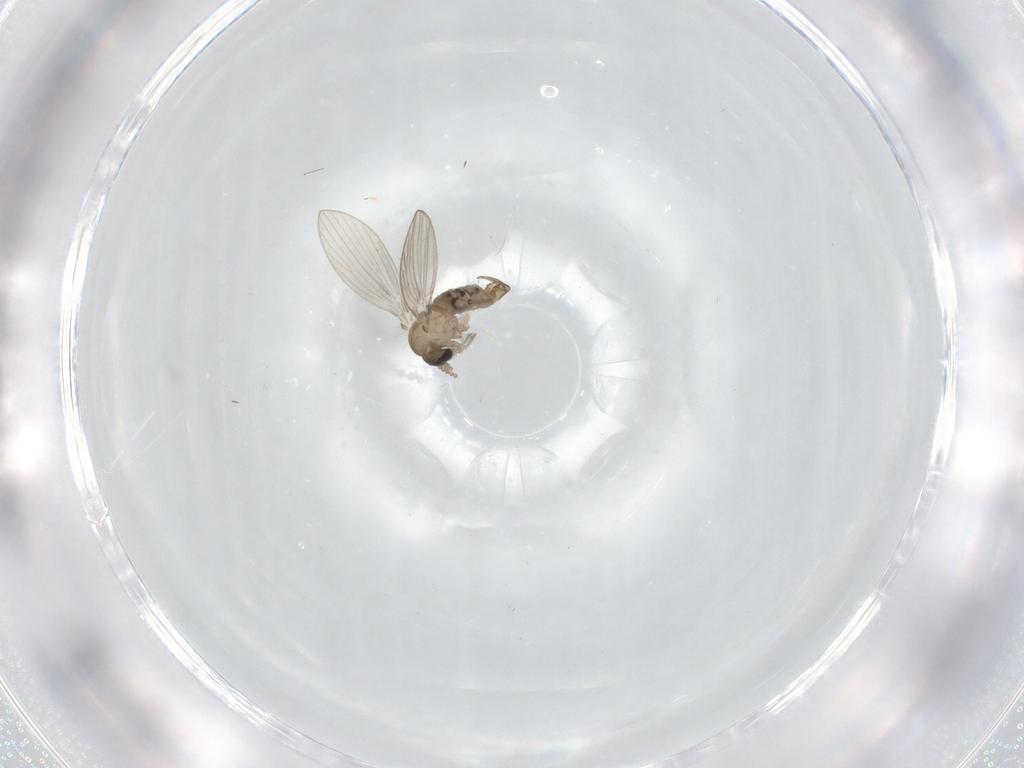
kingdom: Animalia
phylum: Arthropoda
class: Insecta
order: Diptera
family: Psychodidae
